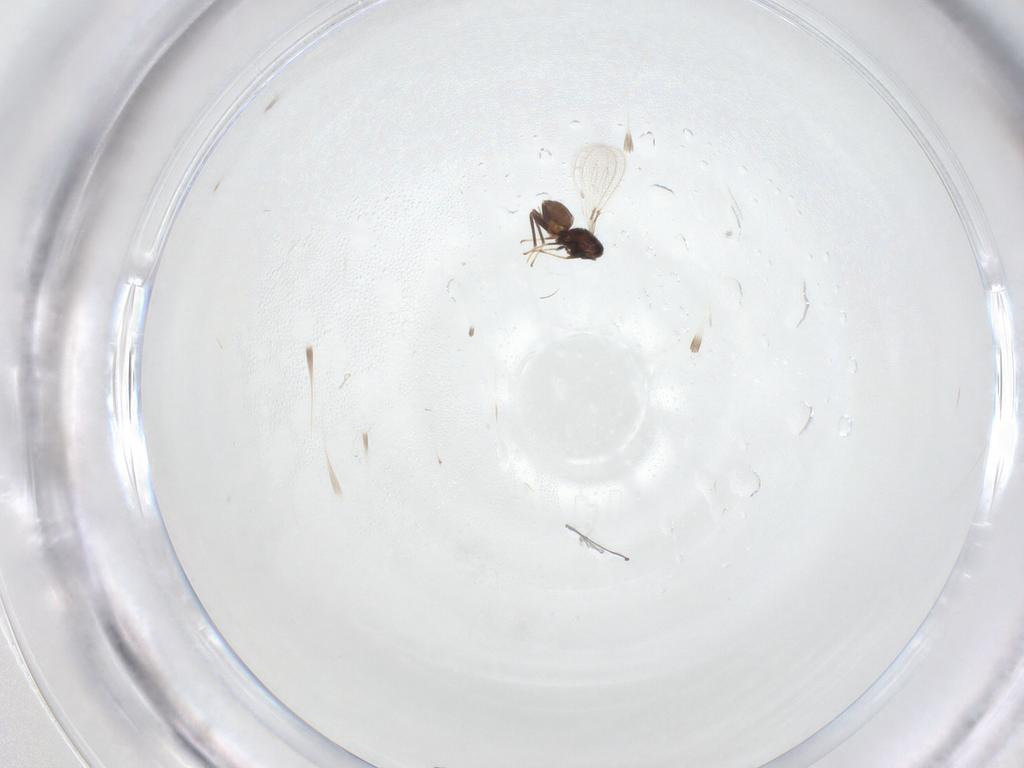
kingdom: Animalia
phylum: Arthropoda
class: Insecta
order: Hymenoptera
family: Mymaridae
